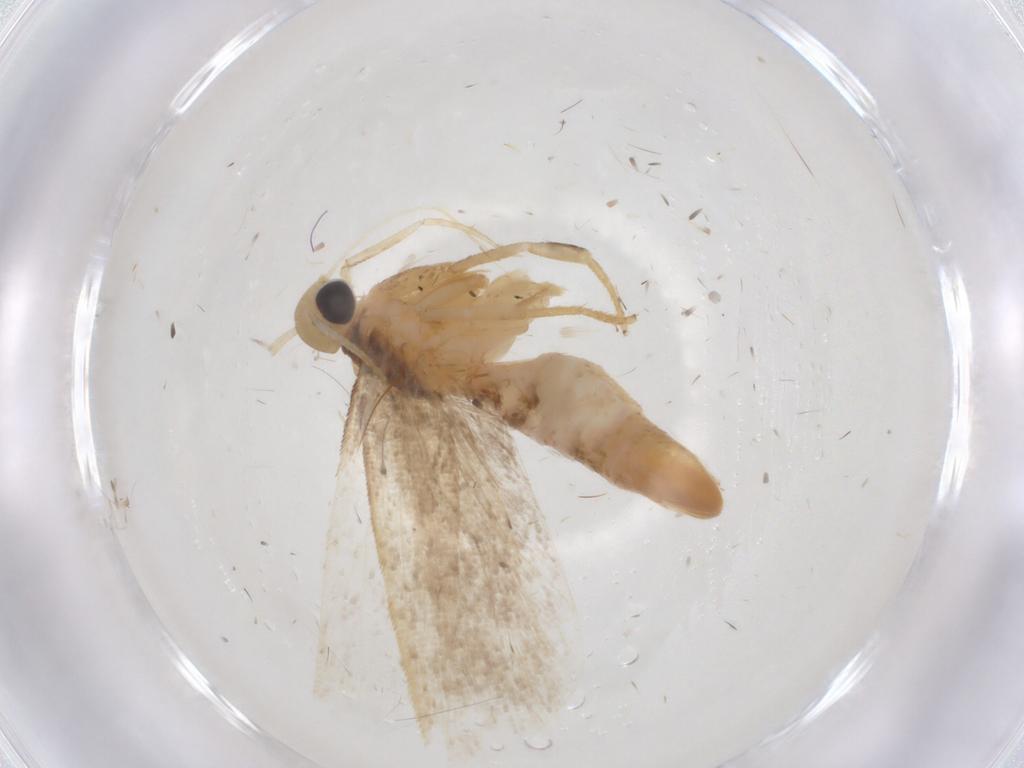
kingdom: Animalia
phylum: Arthropoda
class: Insecta
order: Lepidoptera
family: Gelechiidae
